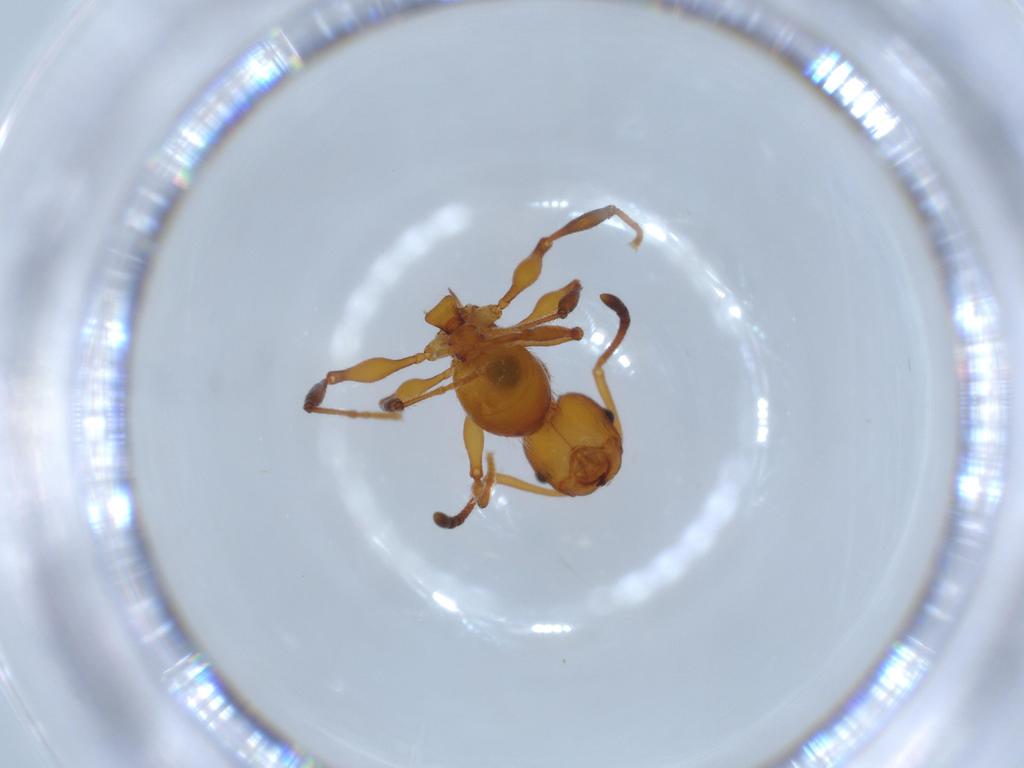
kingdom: Animalia
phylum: Arthropoda
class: Insecta
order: Hymenoptera
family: Formicidae
